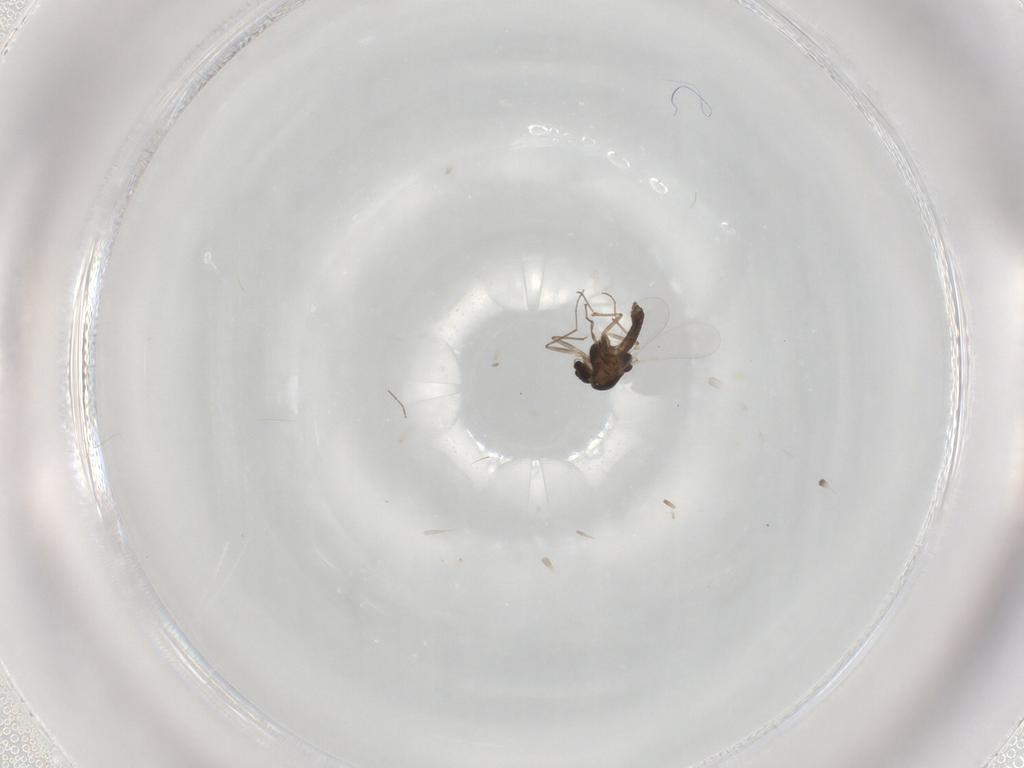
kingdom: Animalia
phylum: Arthropoda
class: Insecta
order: Diptera
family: Chironomidae
